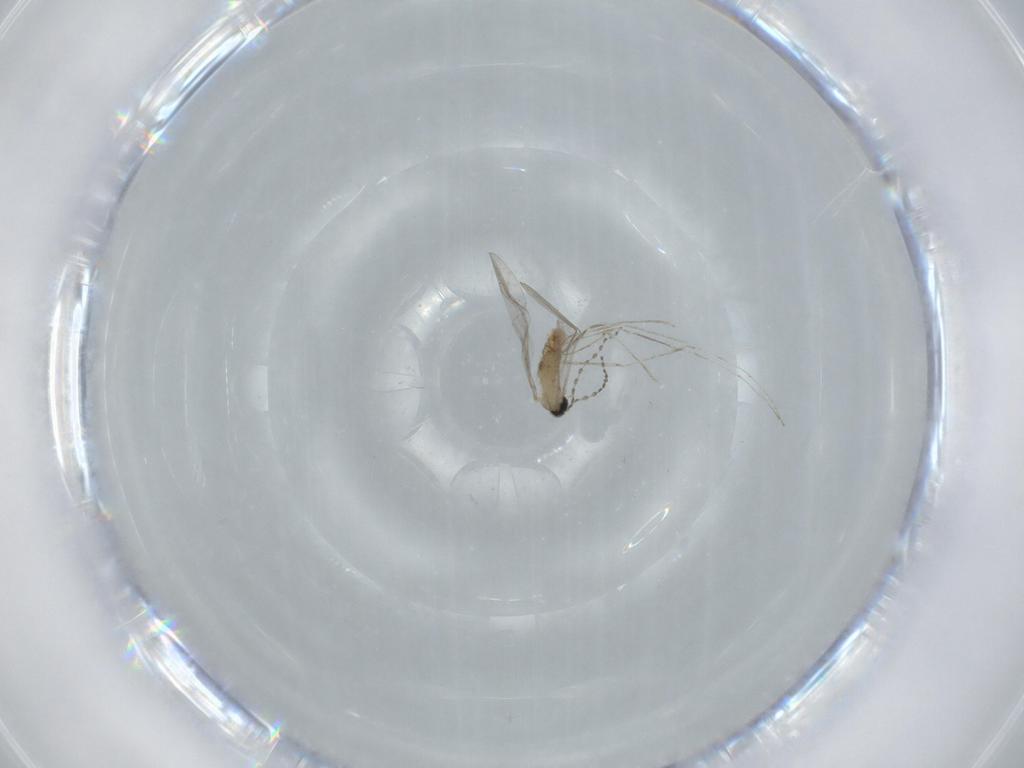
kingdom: Animalia
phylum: Arthropoda
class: Insecta
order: Diptera
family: Cecidomyiidae
